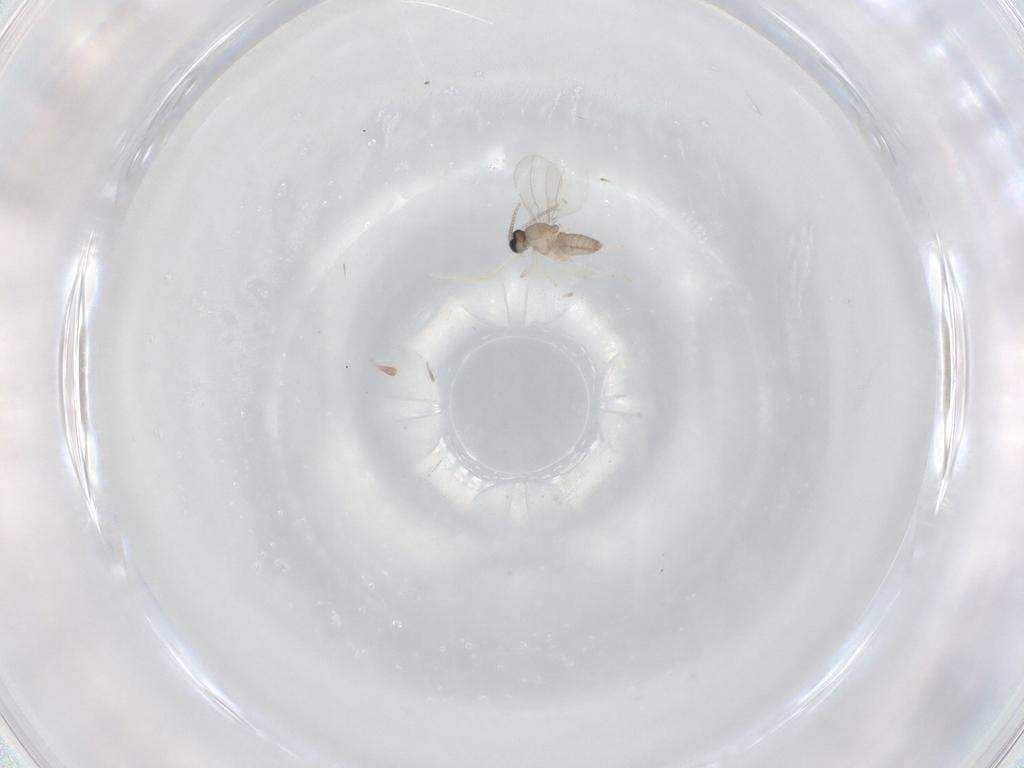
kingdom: Animalia
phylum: Arthropoda
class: Insecta
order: Diptera
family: Cecidomyiidae
